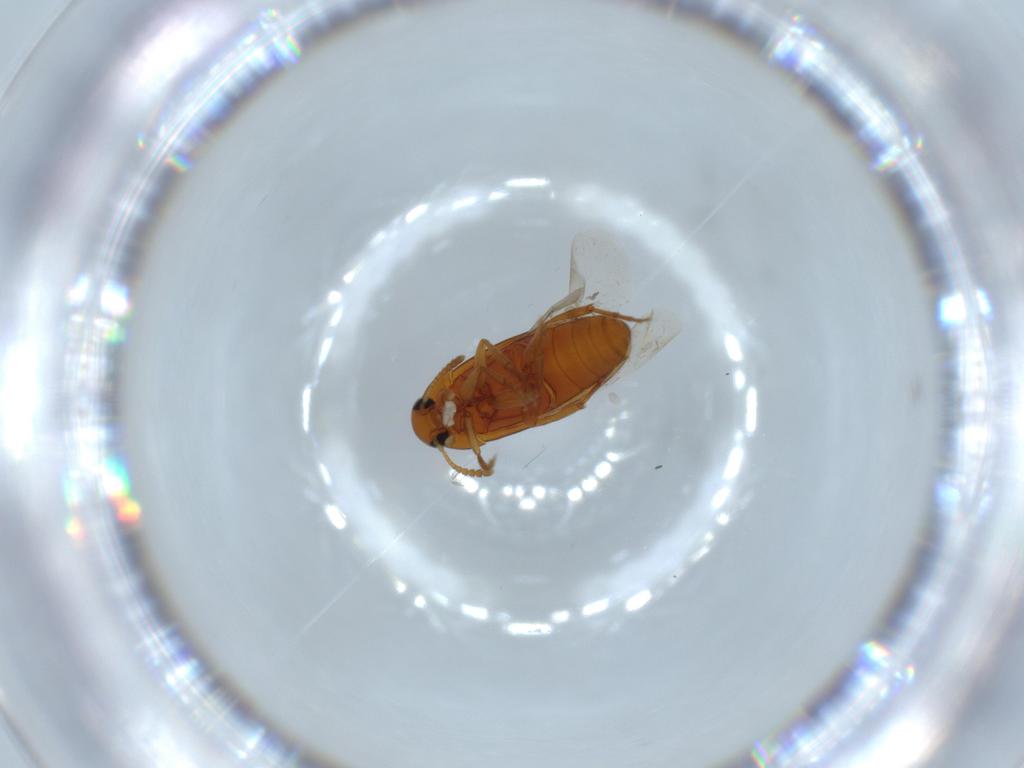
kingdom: Animalia
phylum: Arthropoda
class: Insecta
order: Coleoptera
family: Scraptiidae
